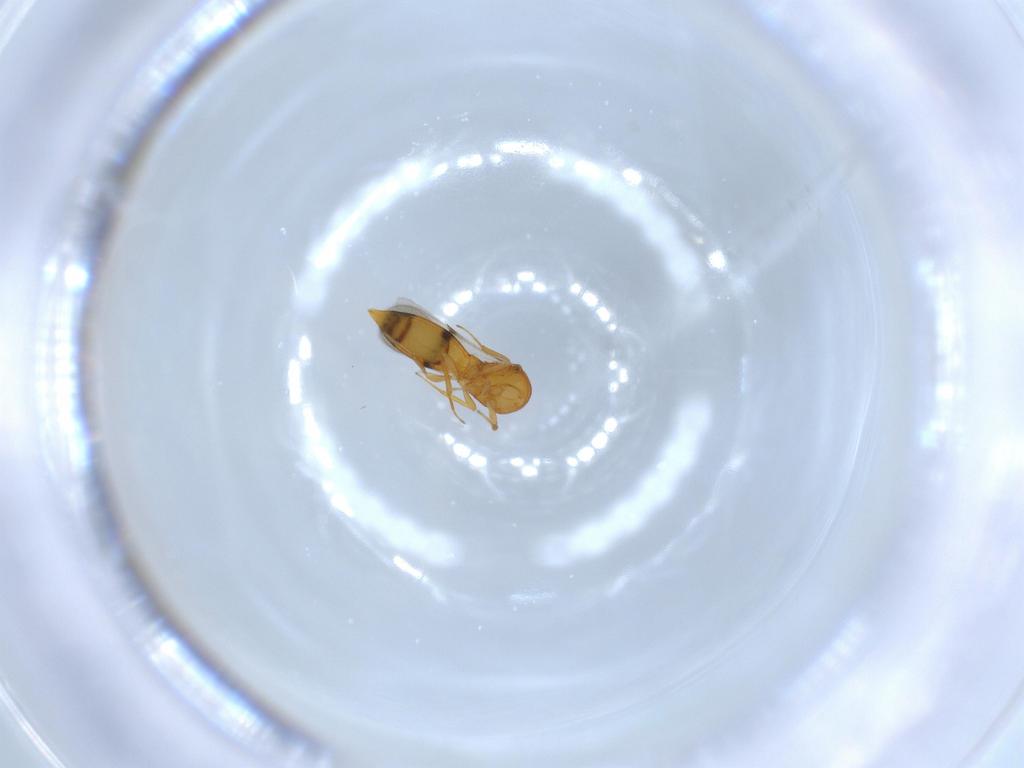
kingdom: Animalia
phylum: Arthropoda
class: Insecta
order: Hymenoptera
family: Scelionidae
